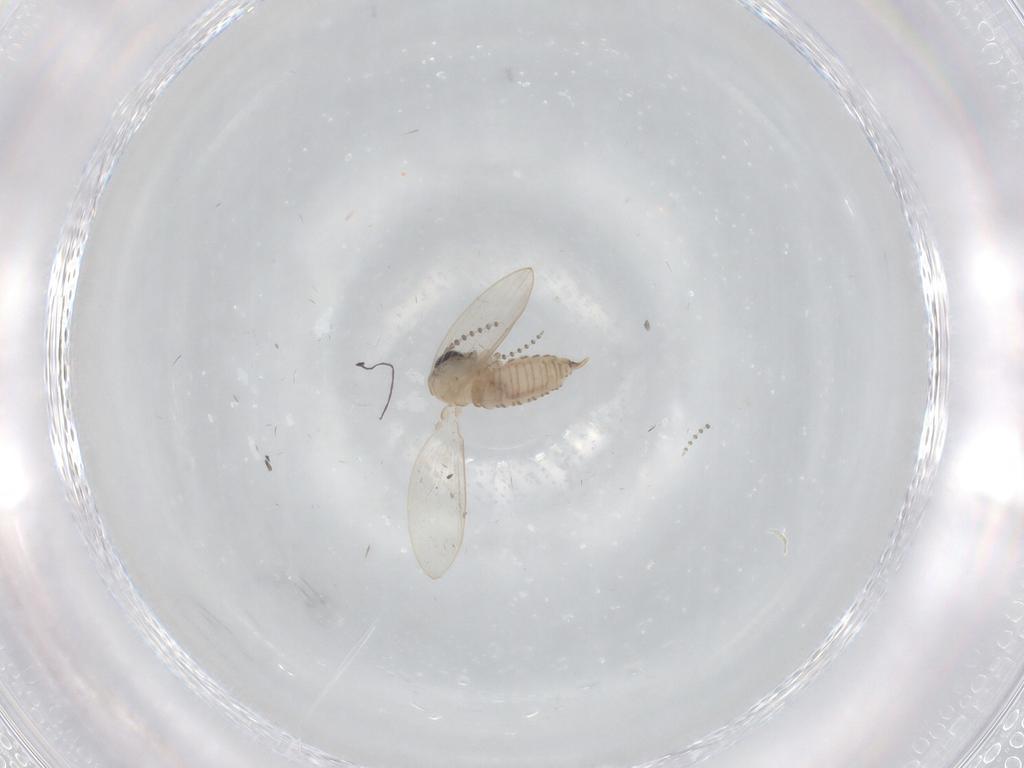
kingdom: Animalia
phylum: Arthropoda
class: Insecta
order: Diptera
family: Psychodidae
